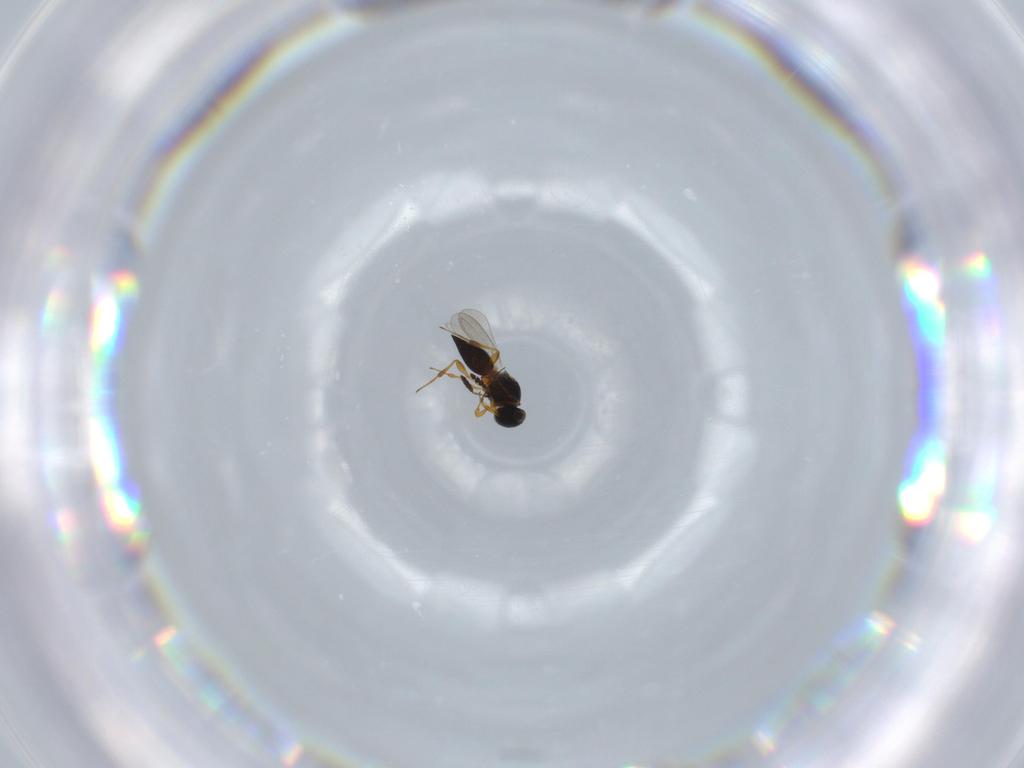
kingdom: Animalia
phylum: Arthropoda
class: Insecta
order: Hymenoptera
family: Platygastridae
